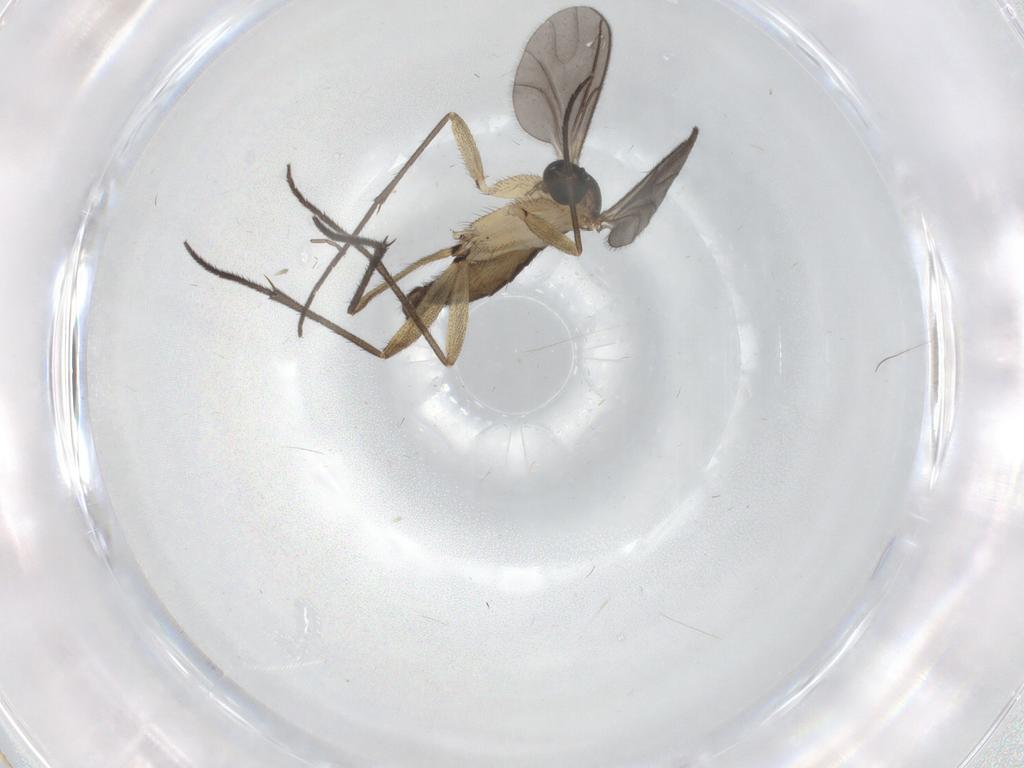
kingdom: Animalia
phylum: Arthropoda
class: Insecta
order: Diptera
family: Sciaridae
